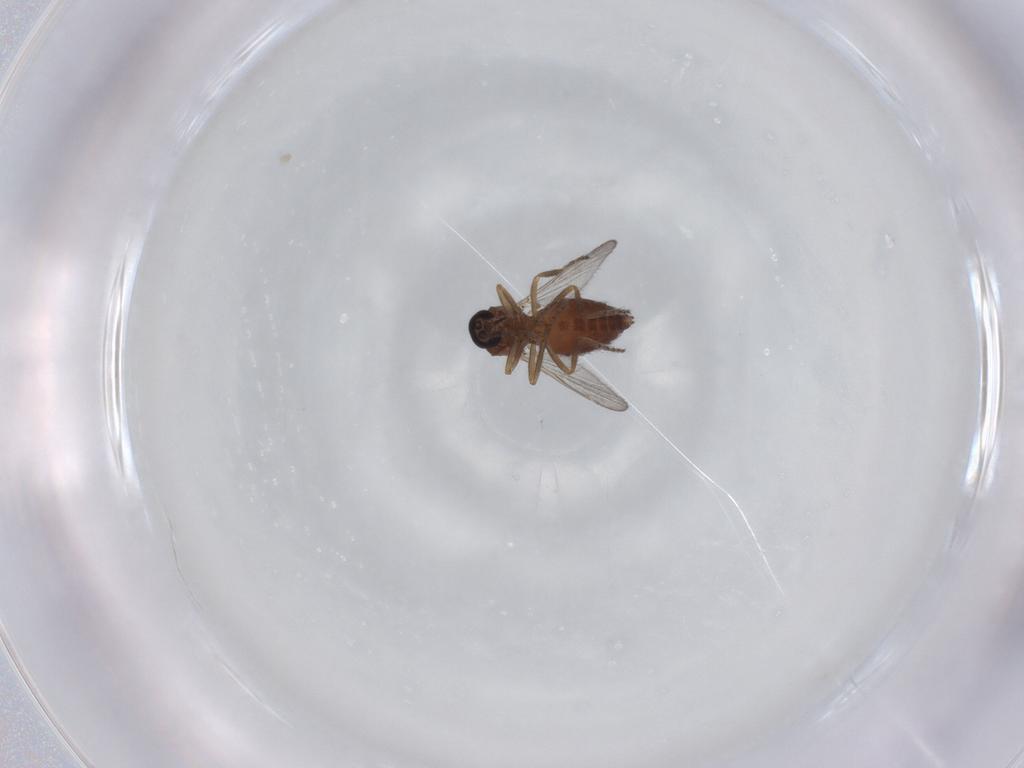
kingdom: Animalia
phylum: Arthropoda
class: Insecta
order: Diptera
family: Ceratopogonidae
